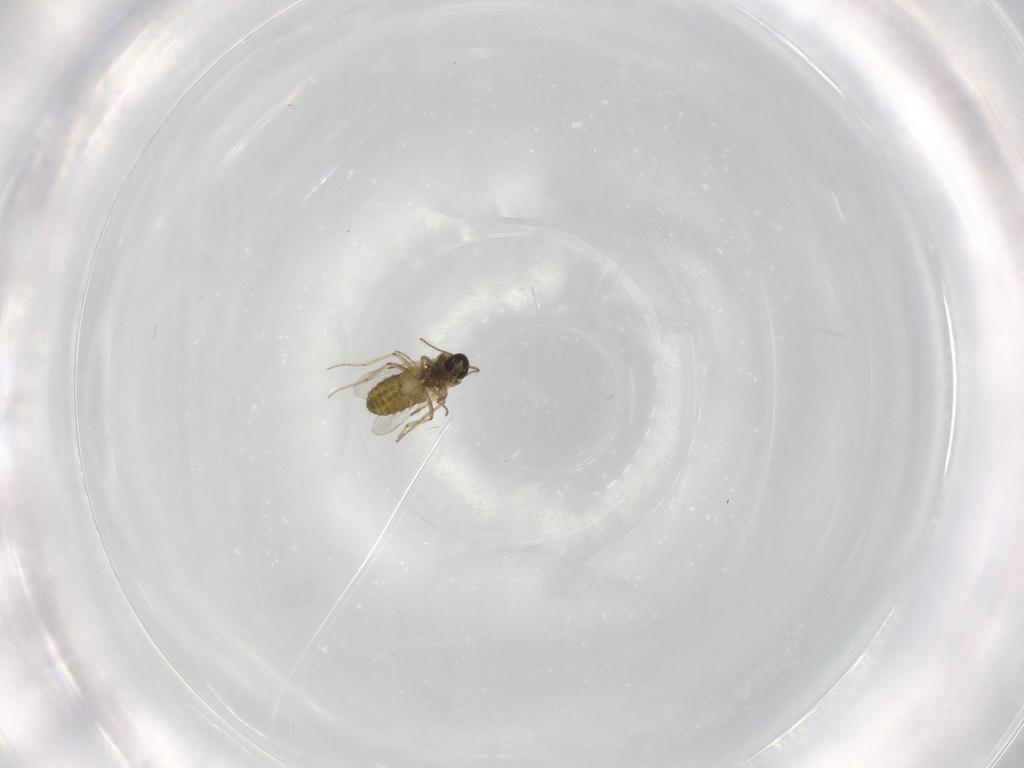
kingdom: Animalia
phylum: Arthropoda
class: Insecta
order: Diptera
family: Ceratopogonidae
